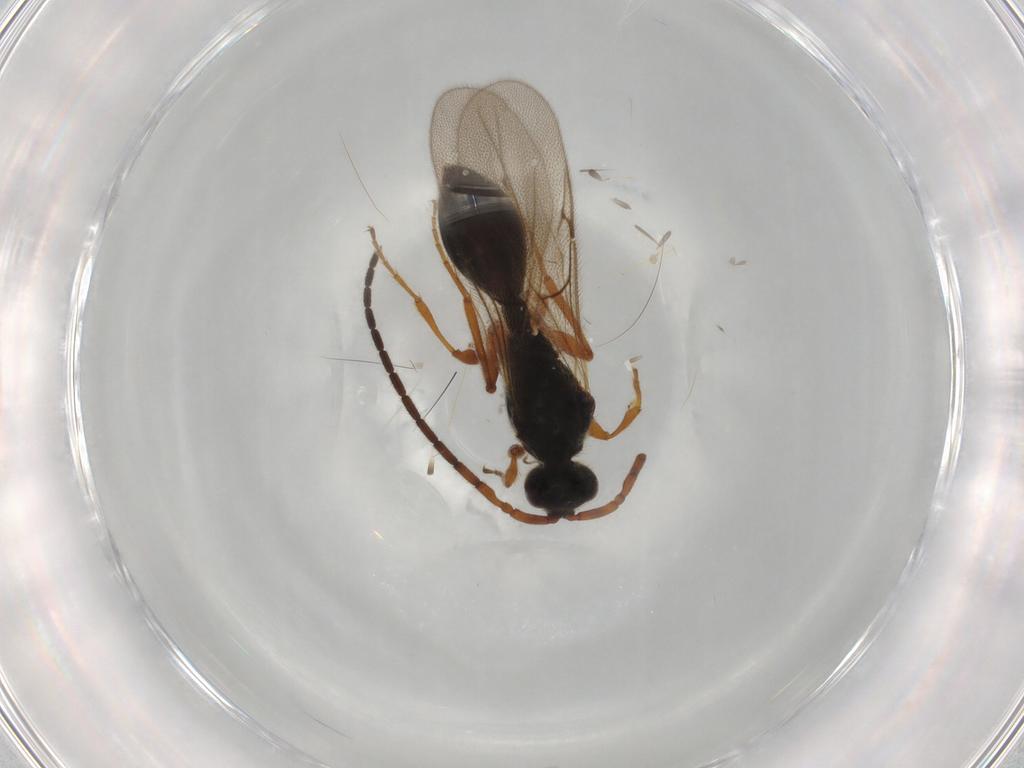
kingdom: Animalia
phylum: Arthropoda
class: Insecta
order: Hymenoptera
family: Diapriidae
